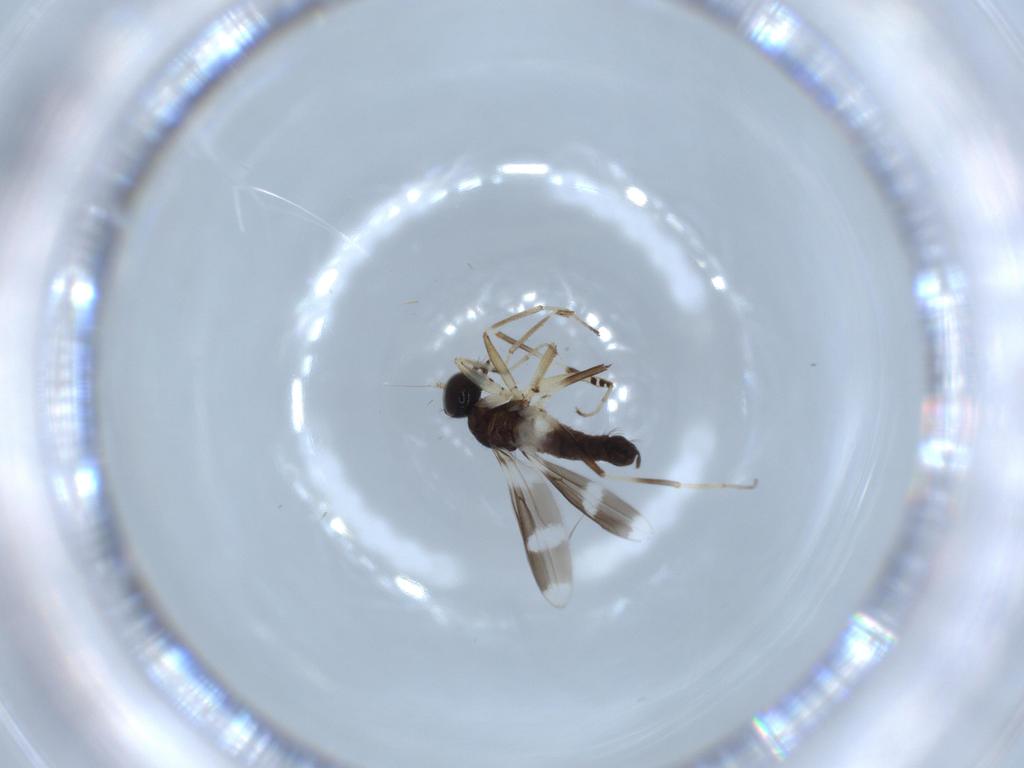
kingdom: Animalia
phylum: Arthropoda
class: Insecta
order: Diptera
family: Hybotidae
